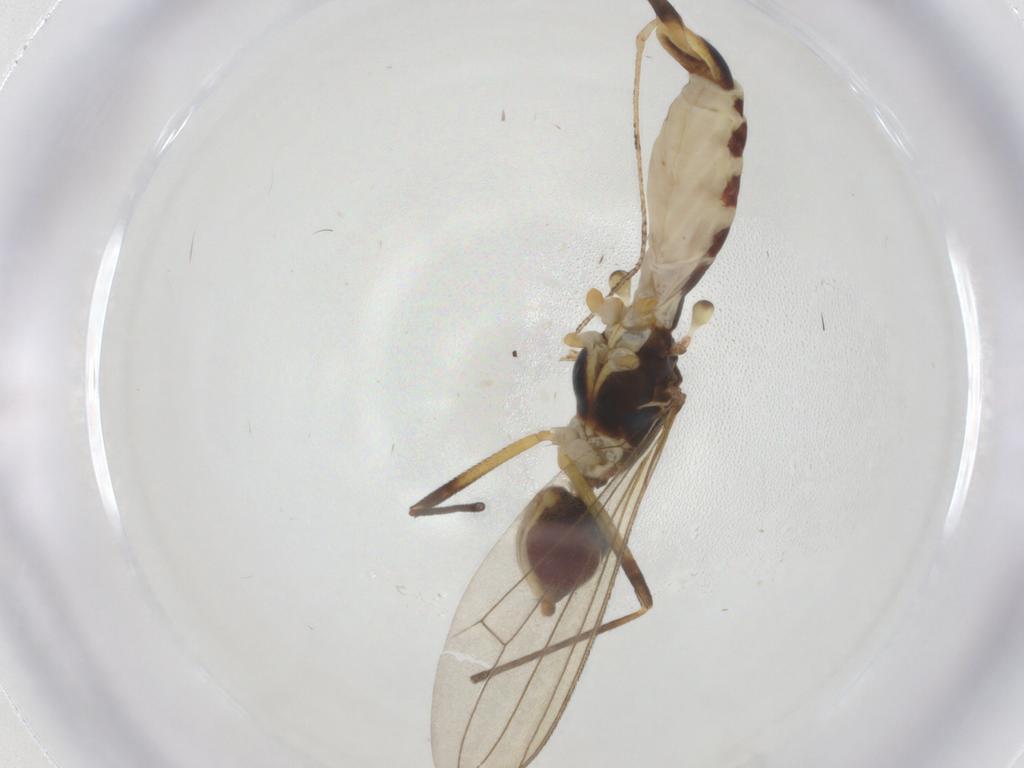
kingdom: Animalia
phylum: Arthropoda
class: Insecta
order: Diptera
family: Micropezidae
